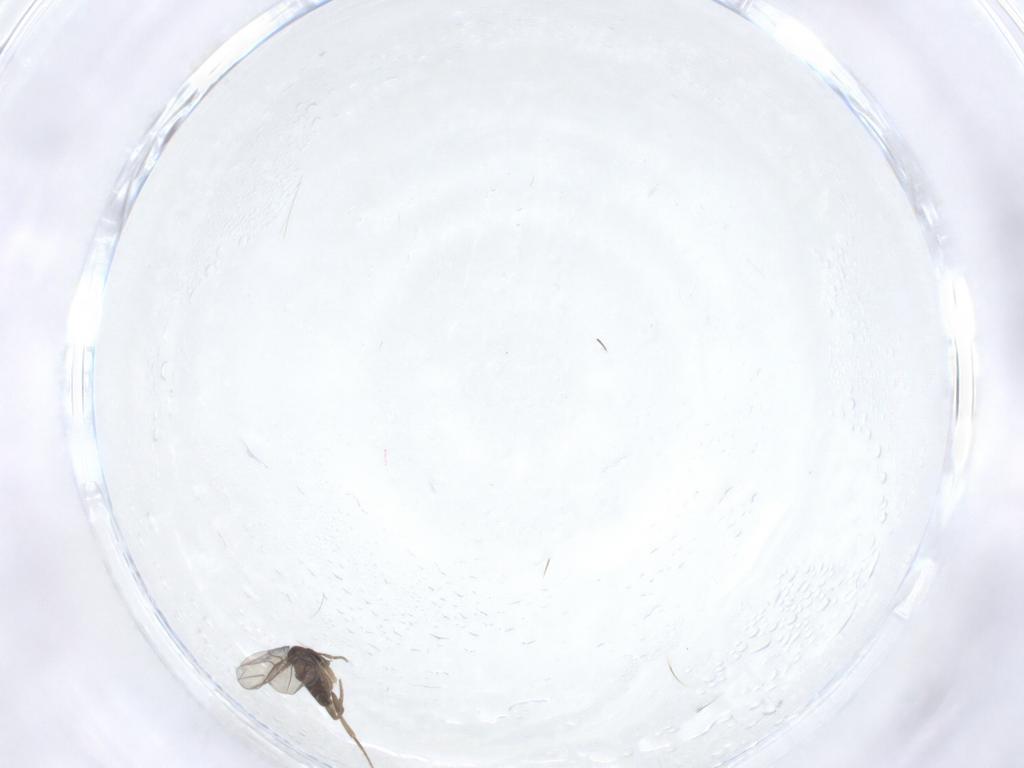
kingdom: Animalia
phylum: Arthropoda
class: Insecta
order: Diptera
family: Phoridae
